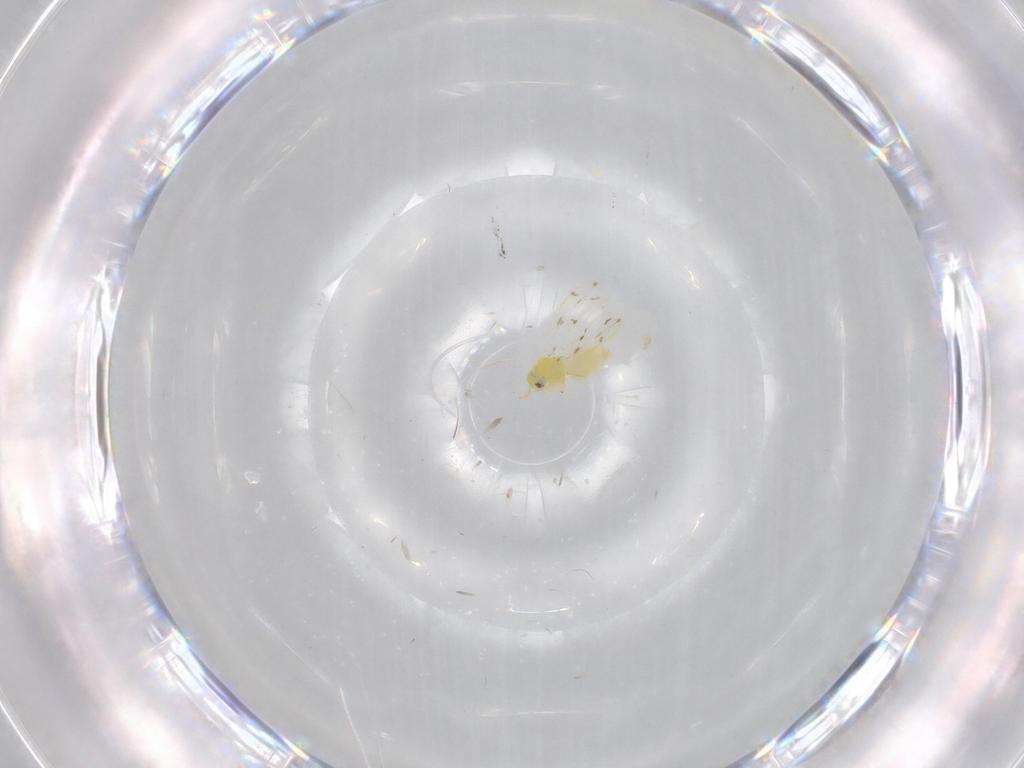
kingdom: Animalia
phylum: Arthropoda
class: Insecta
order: Hemiptera
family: Aleyrodidae
